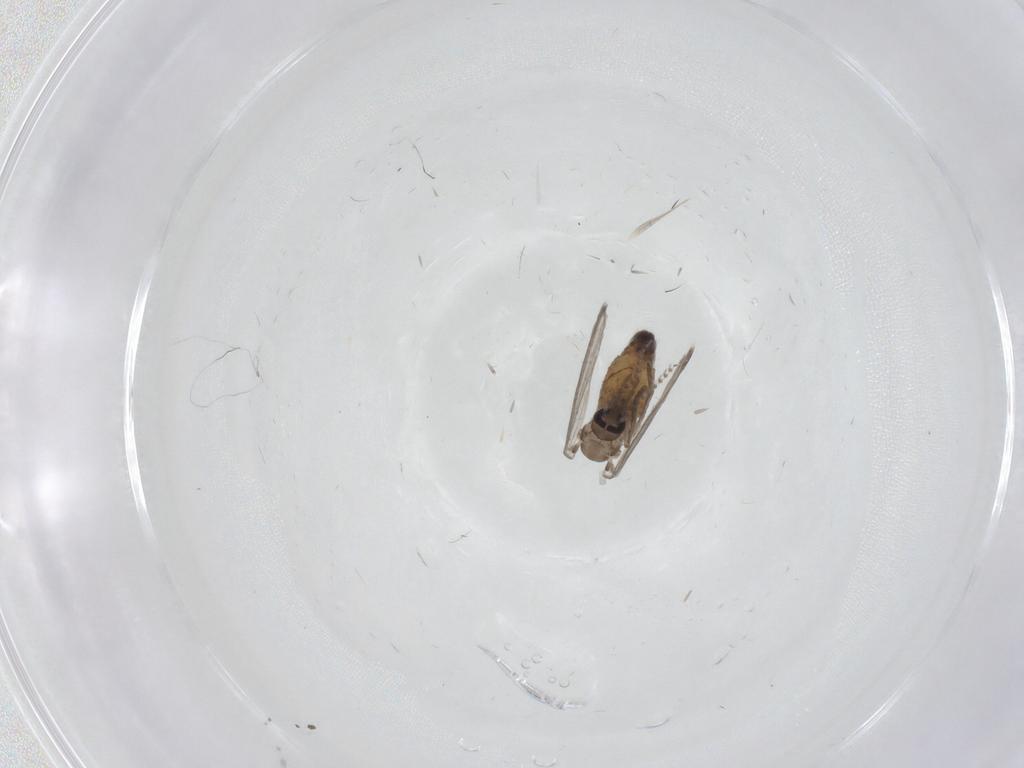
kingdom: Animalia
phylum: Arthropoda
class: Insecta
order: Diptera
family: Psychodidae
